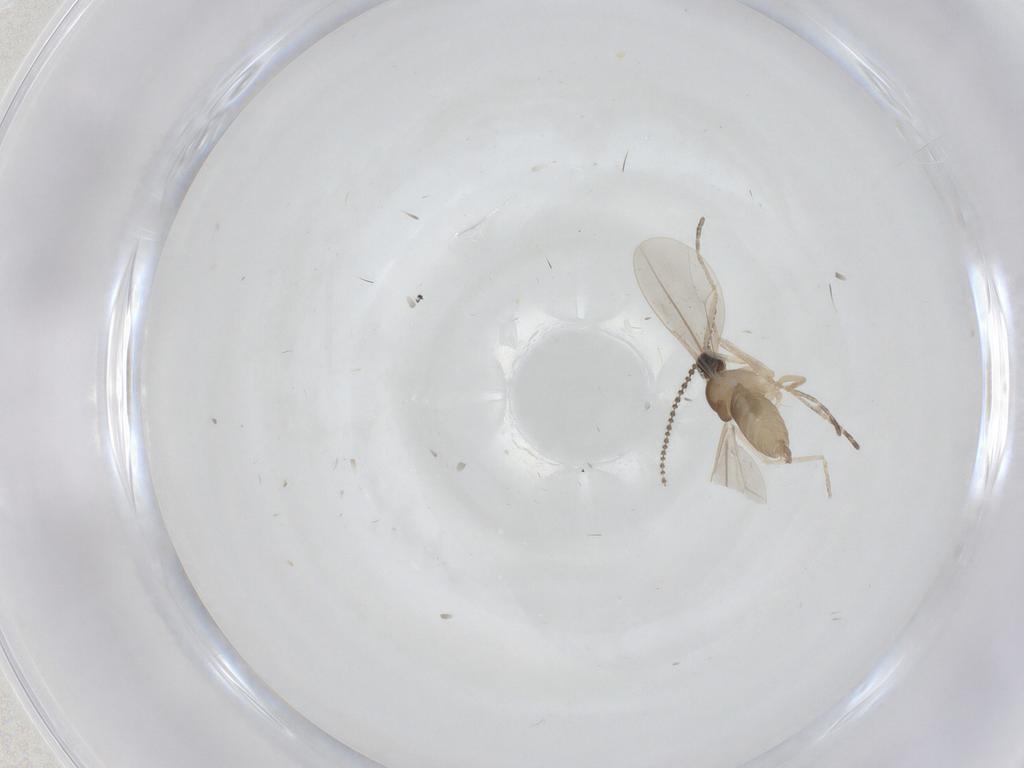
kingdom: Animalia
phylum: Arthropoda
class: Insecta
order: Diptera
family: Cecidomyiidae
